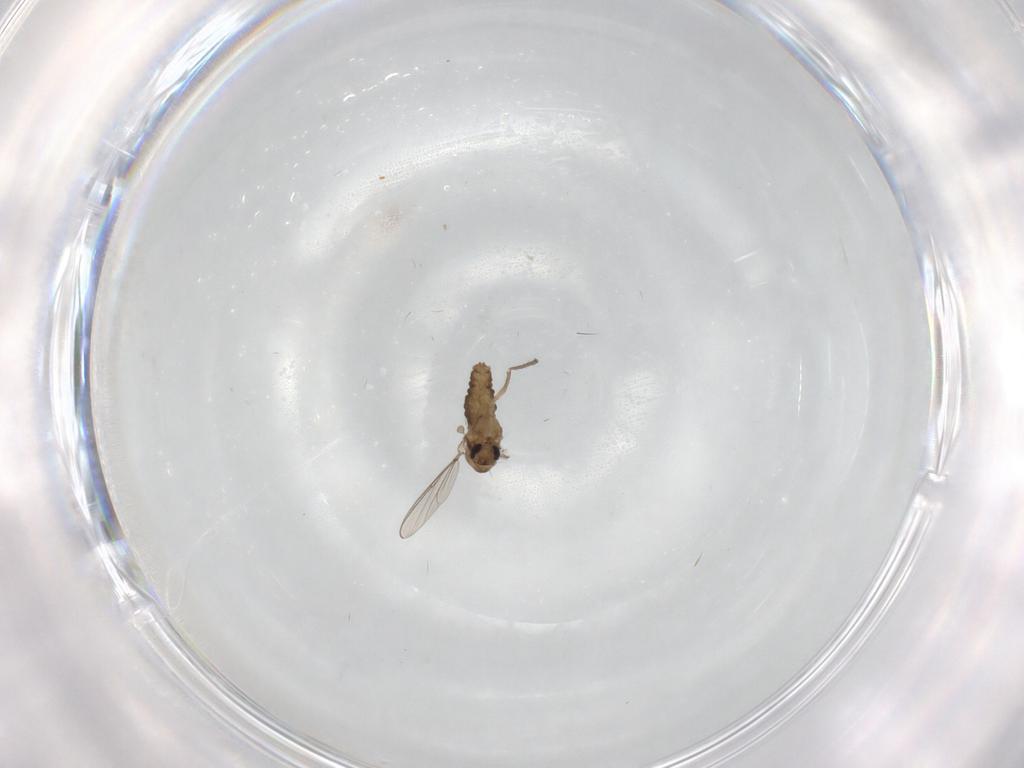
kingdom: Animalia
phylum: Arthropoda
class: Insecta
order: Diptera
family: Chironomidae
